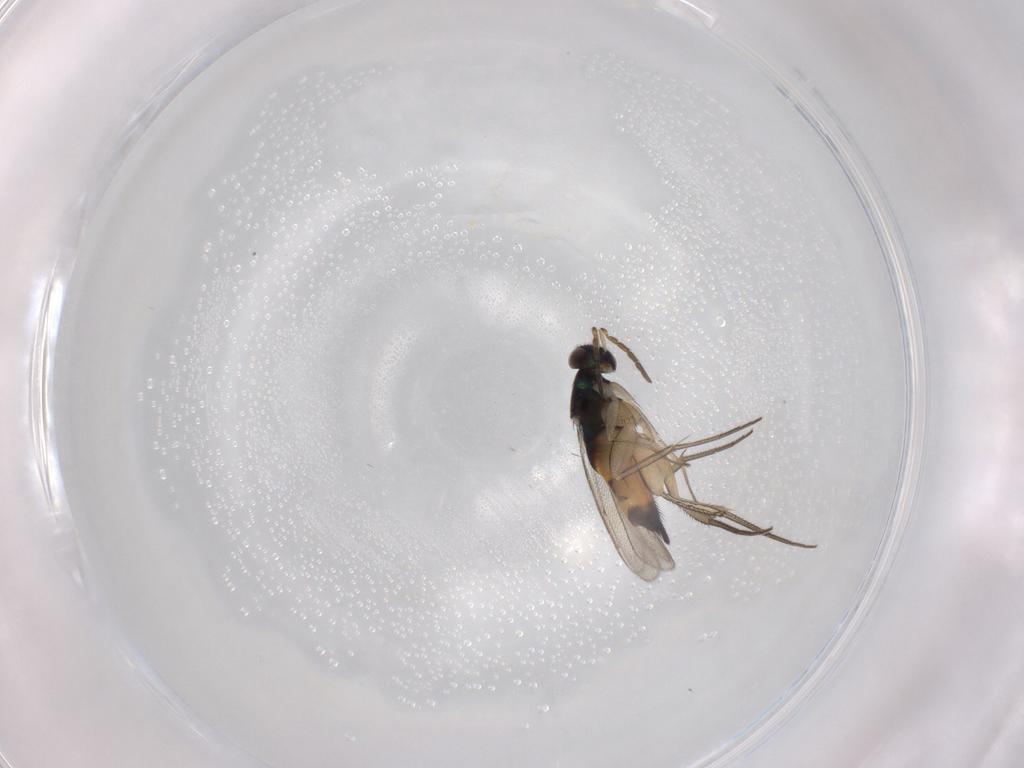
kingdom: Animalia
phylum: Arthropoda
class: Insecta
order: Hymenoptera
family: Eulophidae
